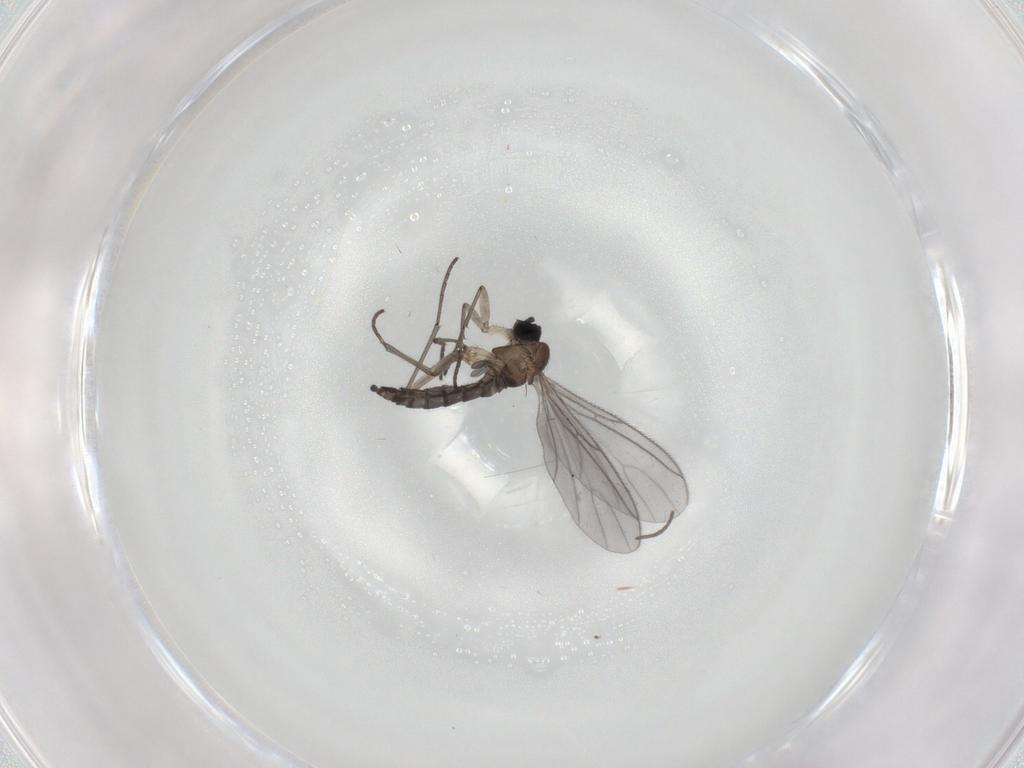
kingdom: Animalia
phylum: Arthropoda
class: Insecta
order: Diptera
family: Sciaridae
